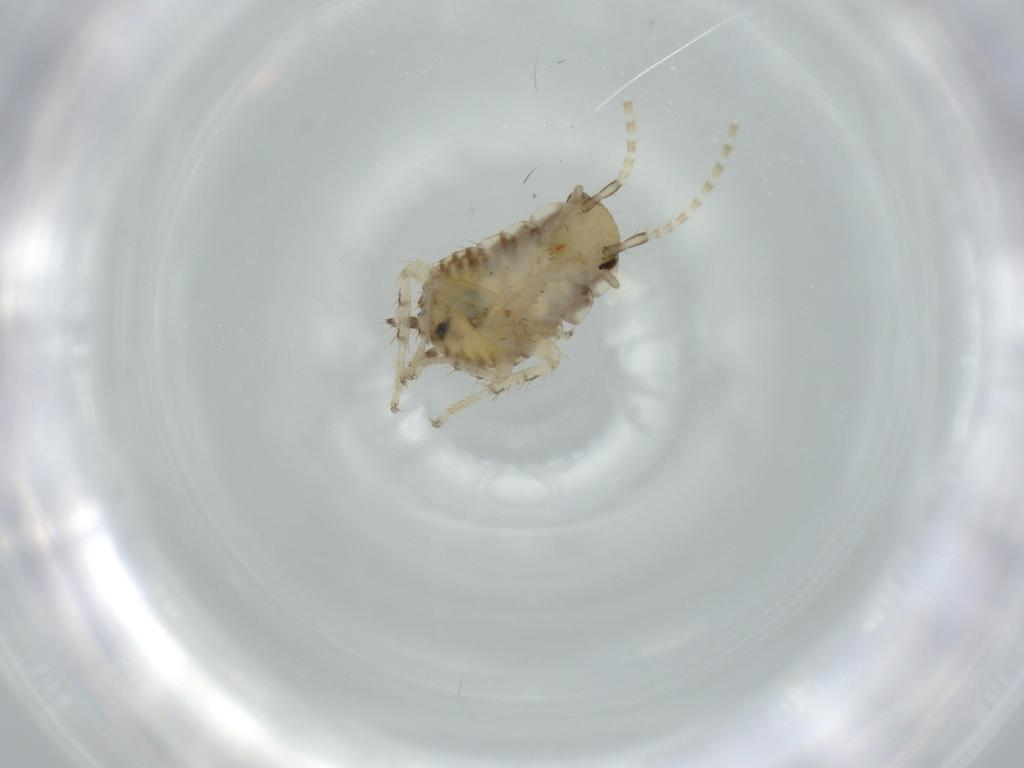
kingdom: Animalia
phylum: Arthropoda
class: Insecta
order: Blattodea
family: Ectobiidae
